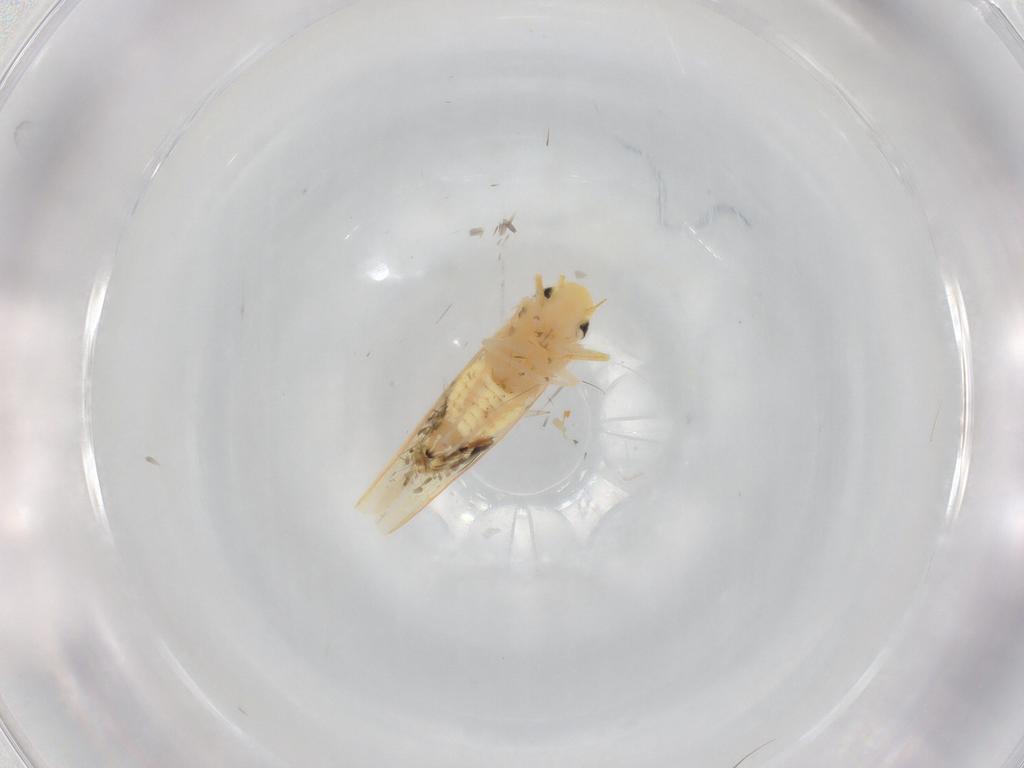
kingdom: Animalia
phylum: Arthropoda
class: Insecta
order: Hemiptera
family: Cicadellidae
